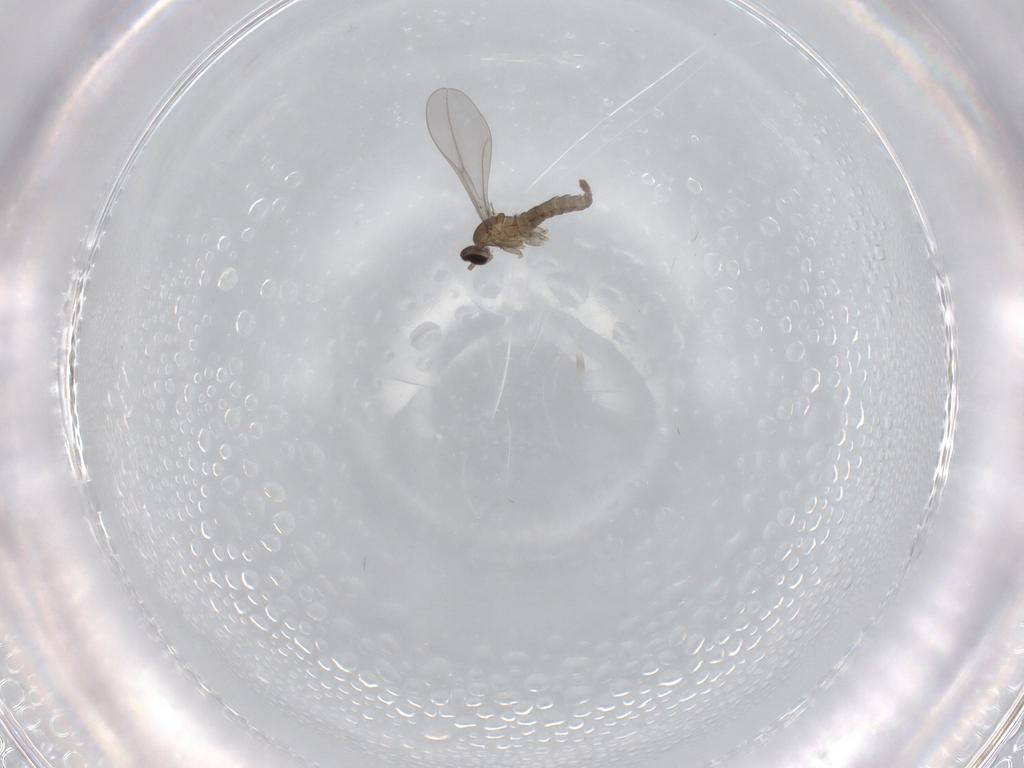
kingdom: Animalia
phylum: Arthropoda
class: Insecta
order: Diptera
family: Cecidomyiidae
